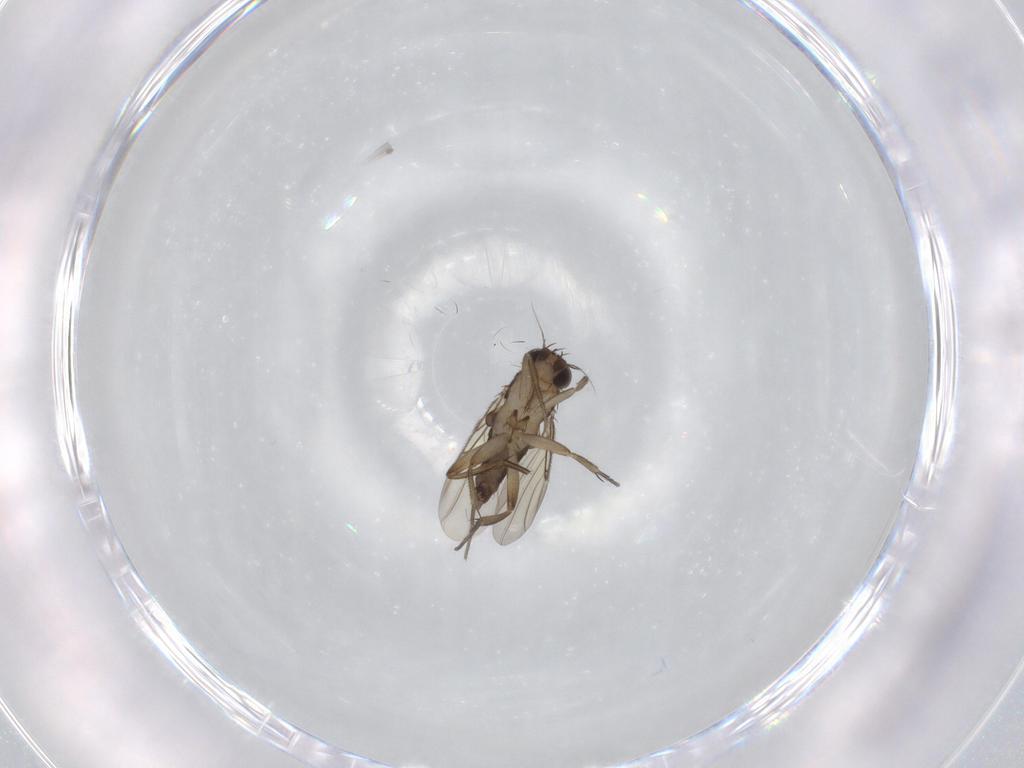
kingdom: Animalia
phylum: Arthropoda
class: Insecta
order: Diptera
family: Phoridae
